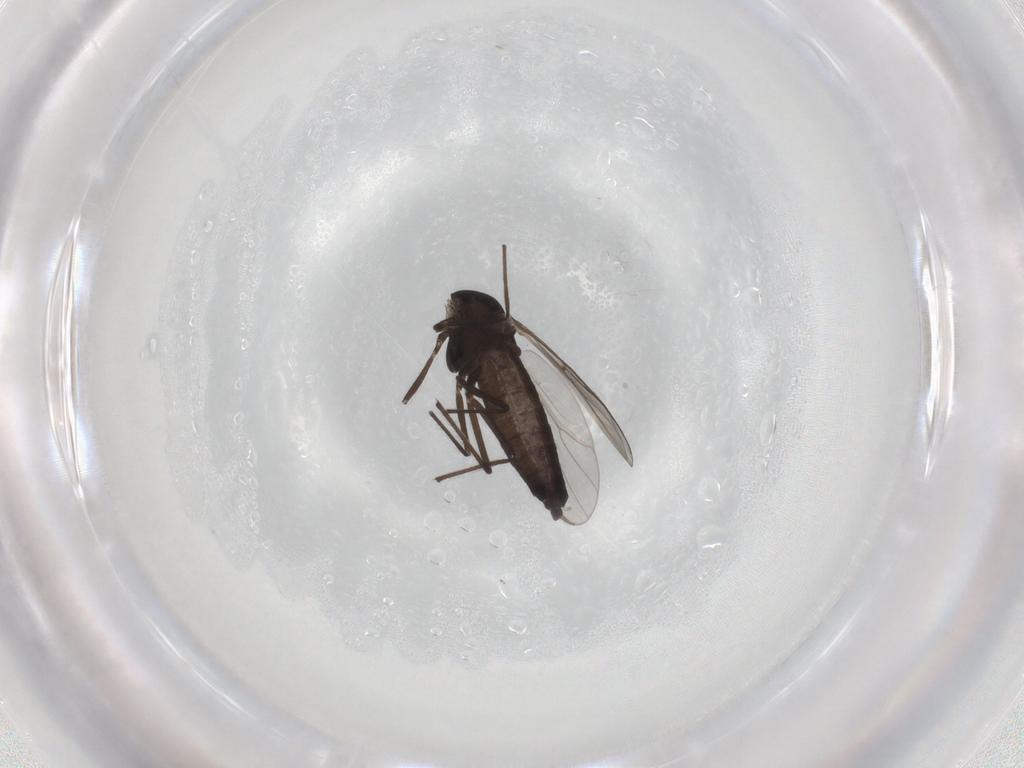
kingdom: Animalia
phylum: Arthropoda
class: Insecta
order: Diptera
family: Chironomidae
